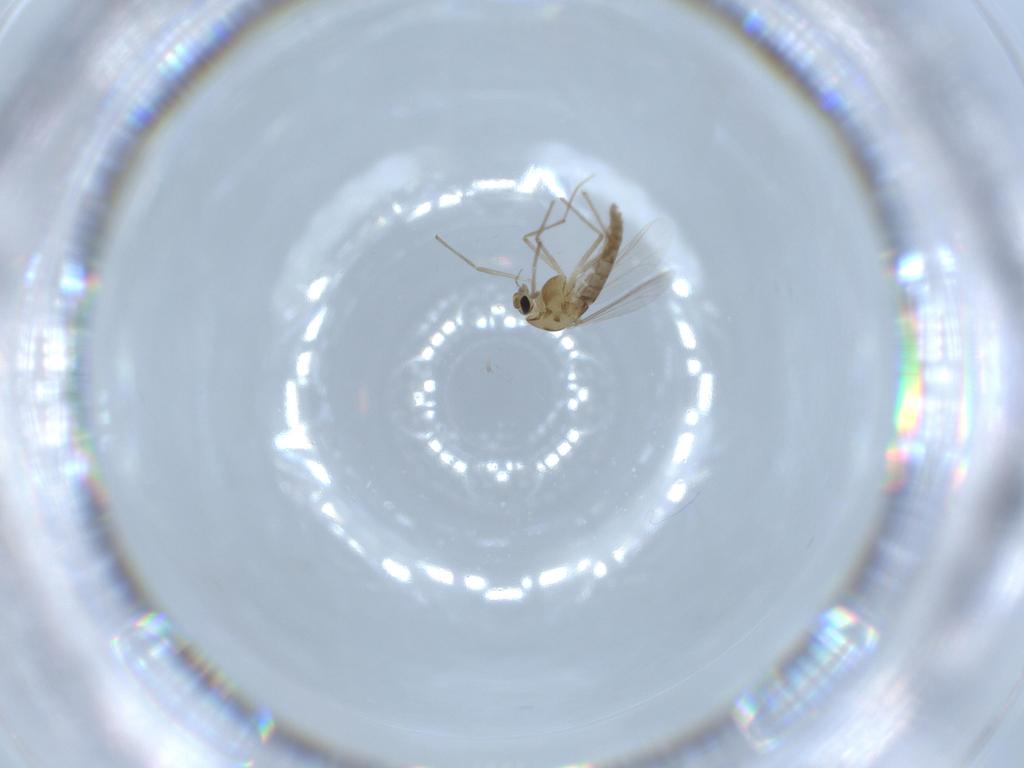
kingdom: Animalia
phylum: Arthropoda
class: Insecta
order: Diptera
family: Chironomidae
